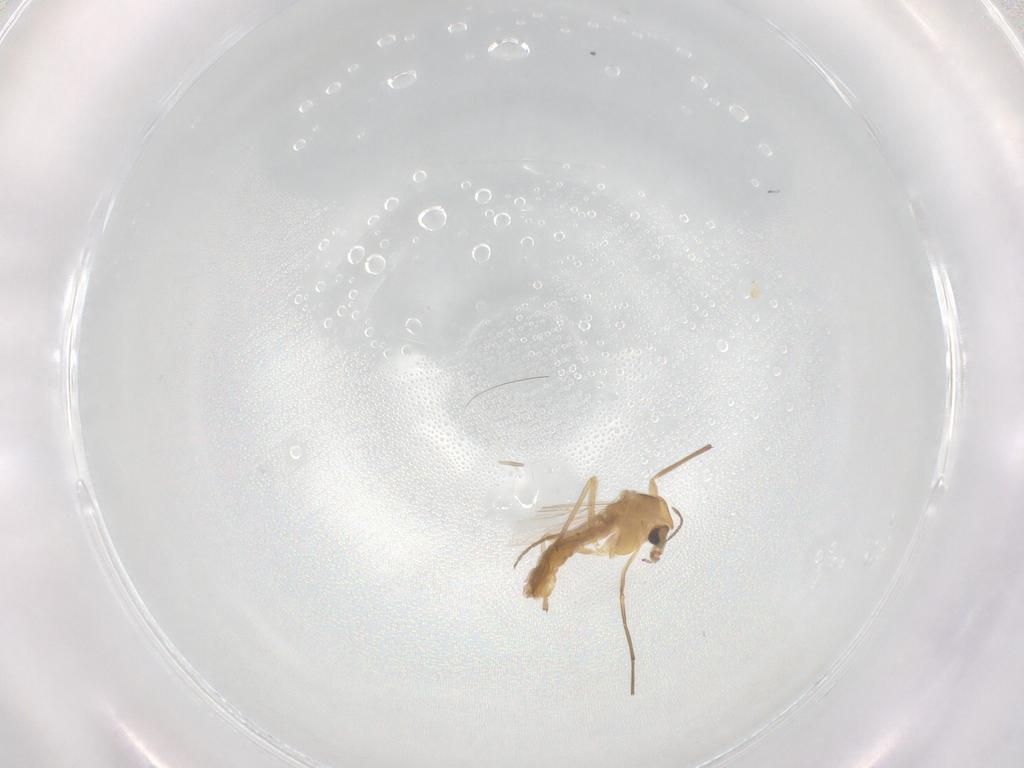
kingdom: Animalia
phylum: Arthropoda
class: Insecta
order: Diptera
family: Chironomidae
